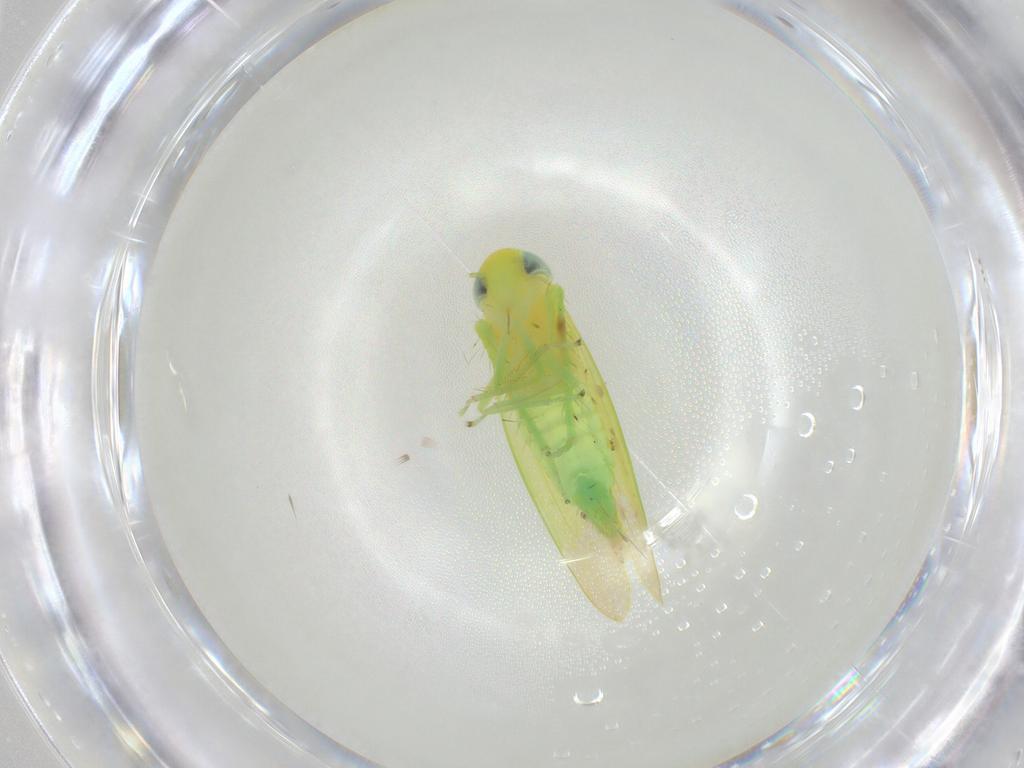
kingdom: Animalia
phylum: Arthropoda
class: Insecta
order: Hemiptera
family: Cicadellidae
